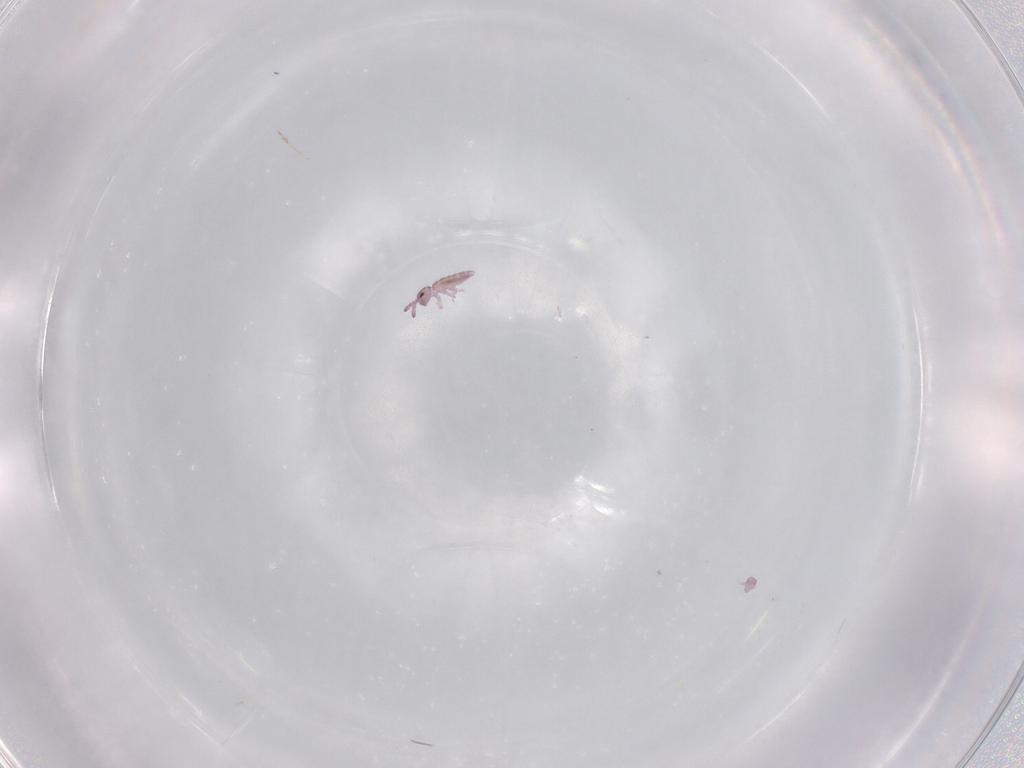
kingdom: Animalia
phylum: Arthropoda
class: Collembola
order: Entomobryomorpha
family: Isotomidae
